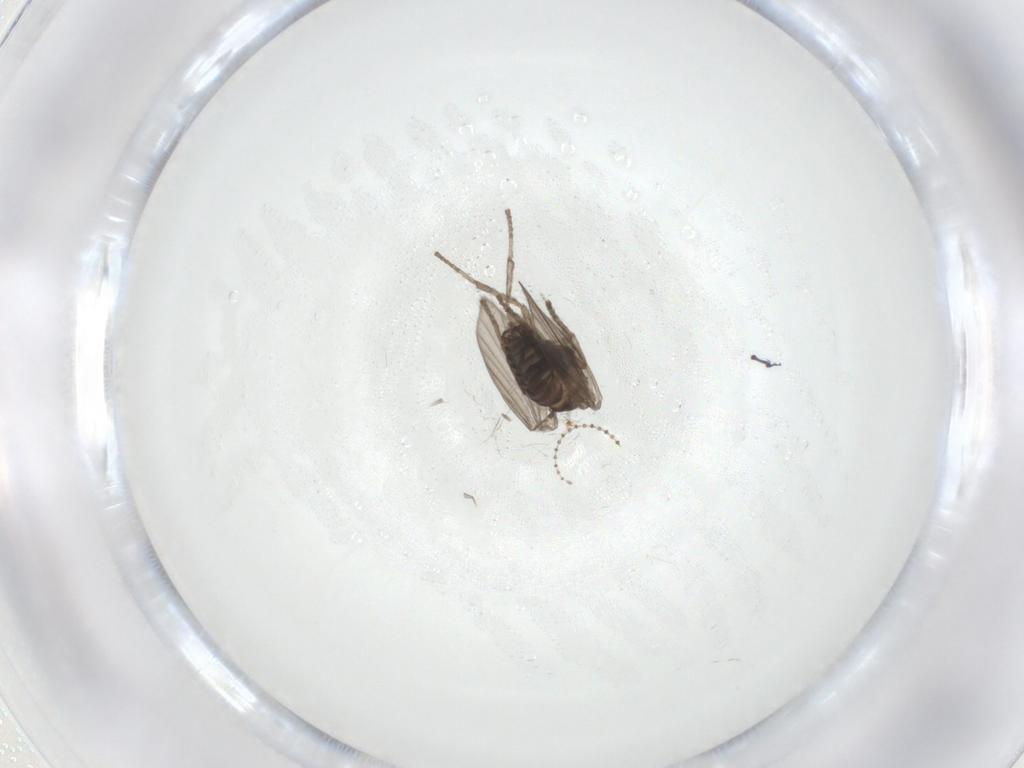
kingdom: Animalia
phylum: Arthropoda
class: Insecta
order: Diptera
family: Psychodidae
